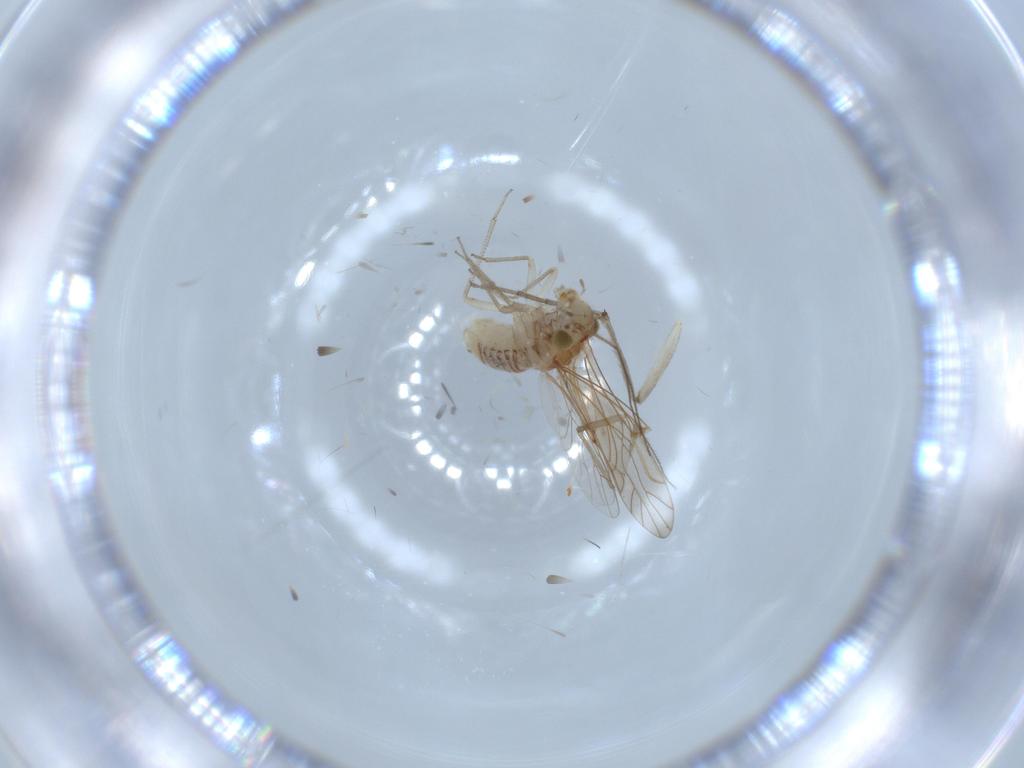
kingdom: Animalia
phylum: Arthropoda
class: Insecta
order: Psocodea
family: Lachesillidae
